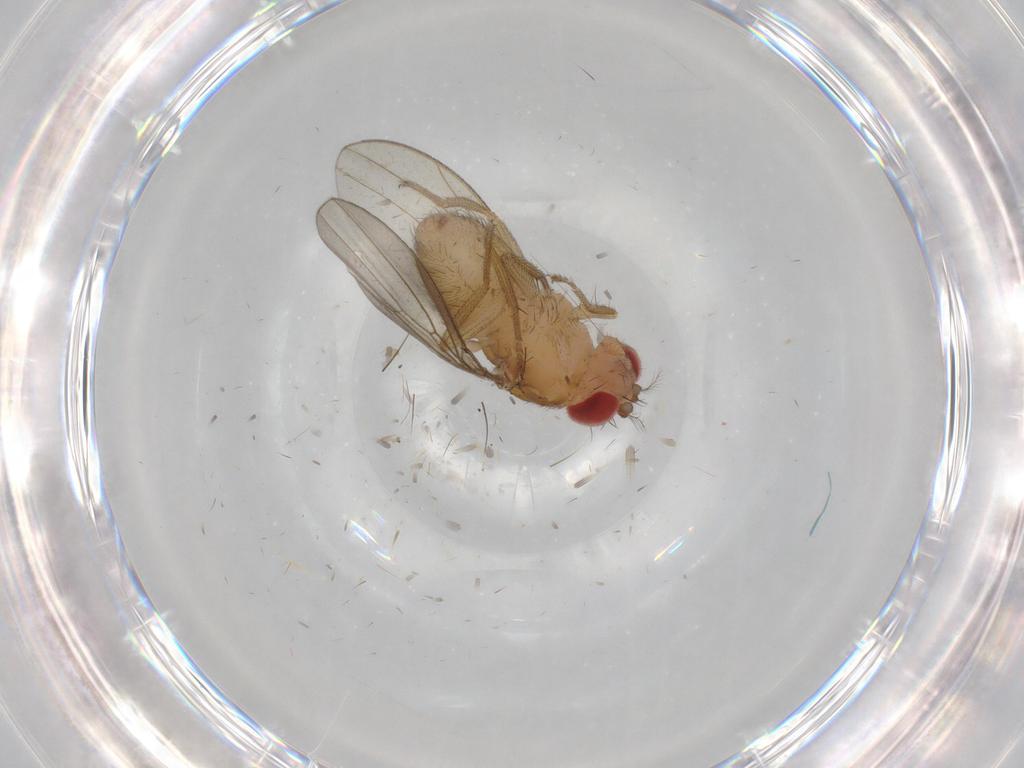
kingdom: Animalia
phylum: Arthropoda
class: Insecta
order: Diptera
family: Drosophilidae
